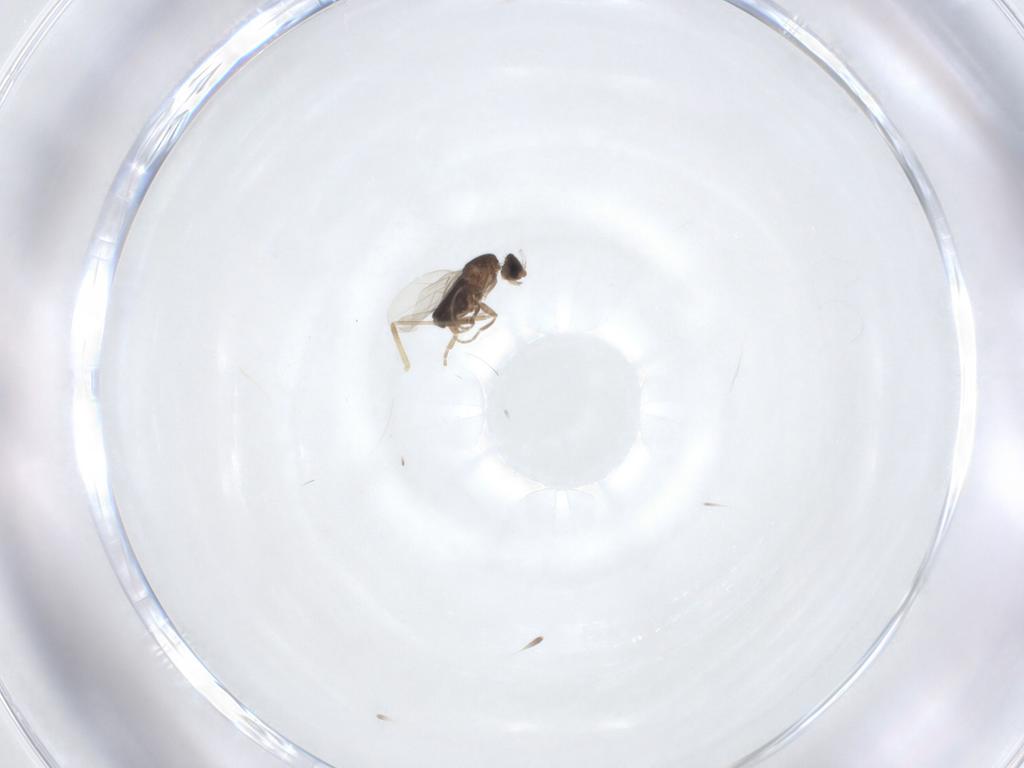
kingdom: Animalia
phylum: Arthropoda
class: Insecta
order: Diptera
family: Phoridae
